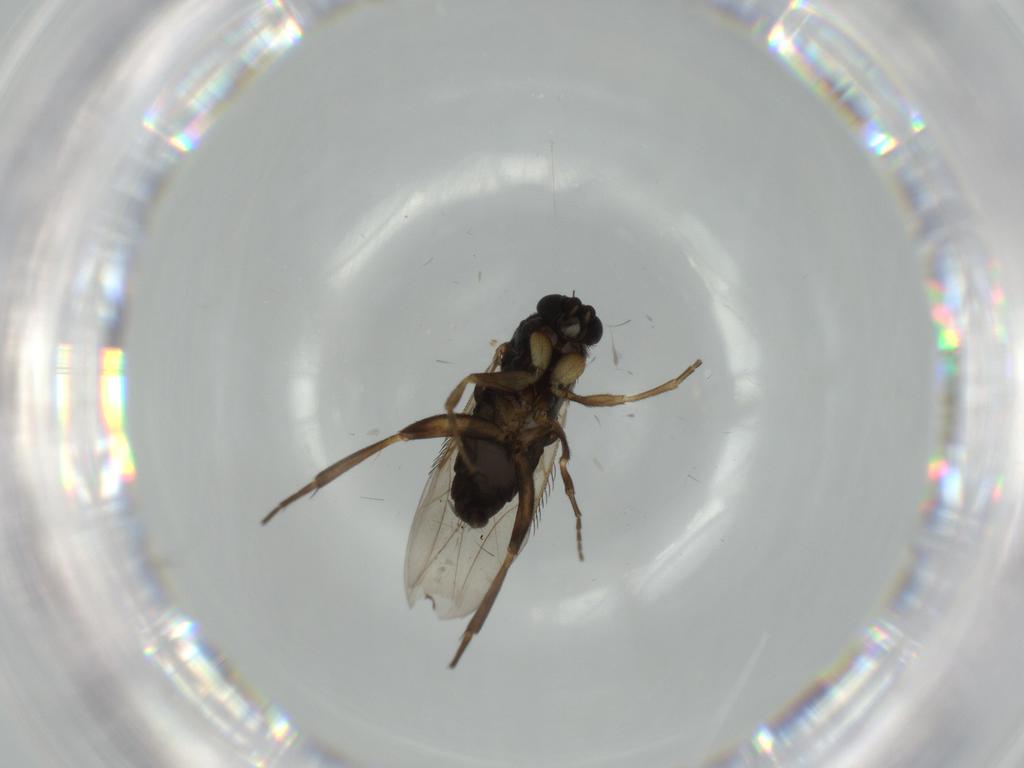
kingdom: Animalia
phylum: Arthropoda
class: Insecta
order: Diptera
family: Phoridae
